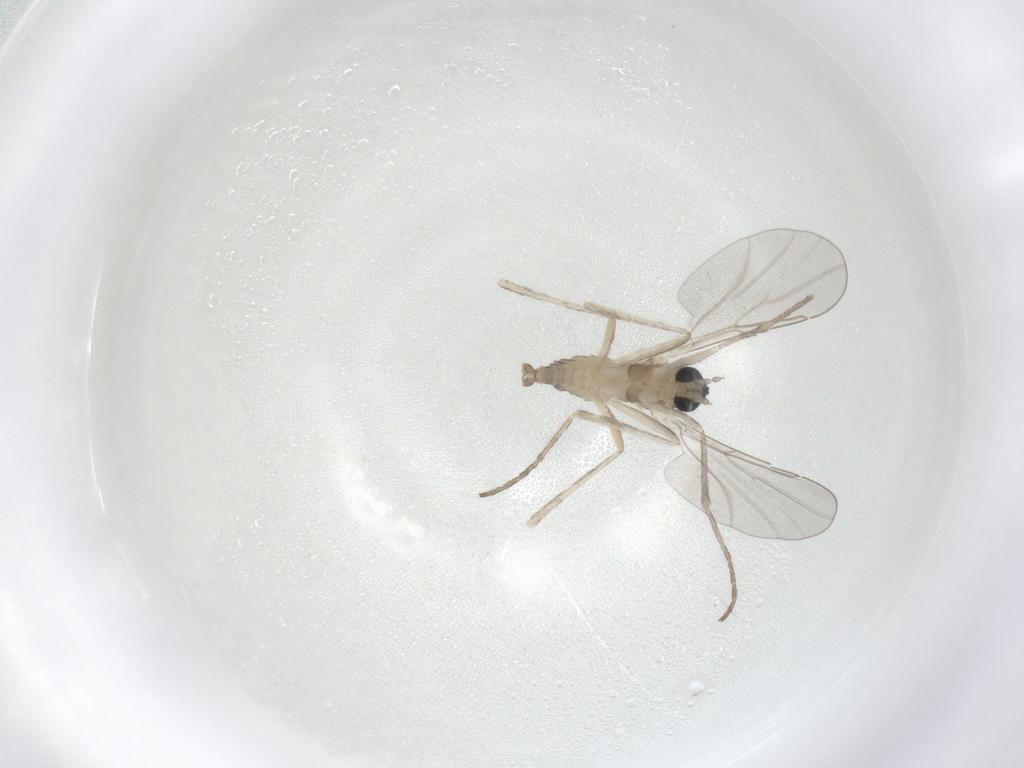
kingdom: Animalia
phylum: Arthropoda
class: Insecta
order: Diptera
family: Cecidomyiidae
